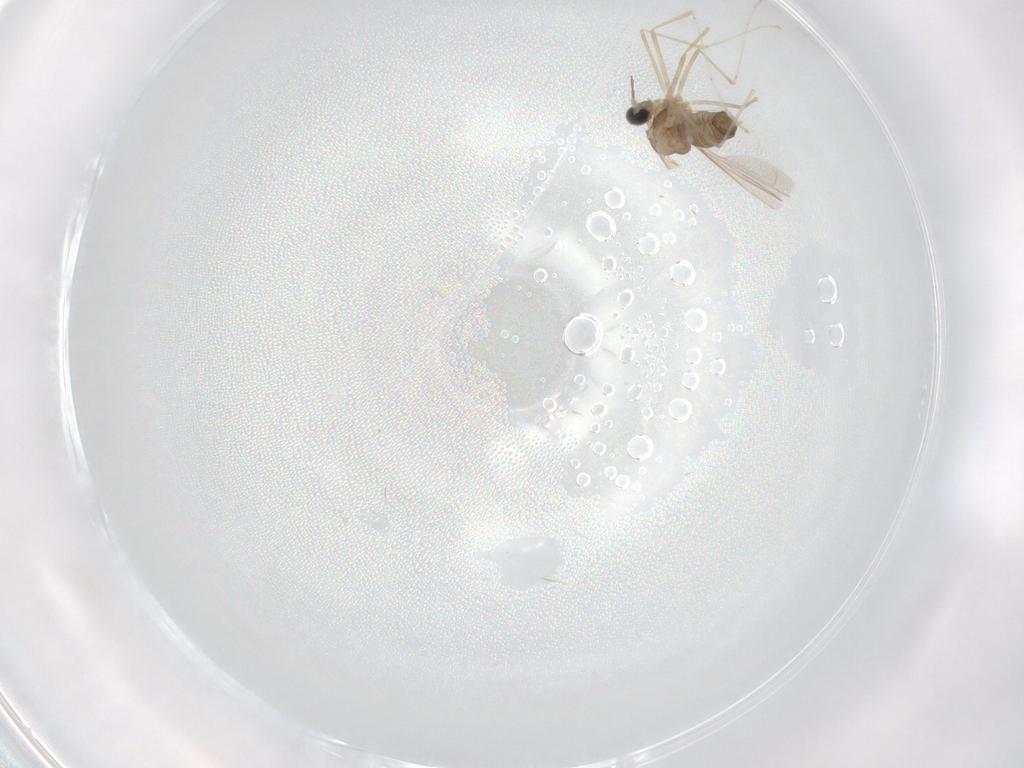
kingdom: Animalia
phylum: Arthropoda
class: Insecta
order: Diptera
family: Cecidomyiidae
